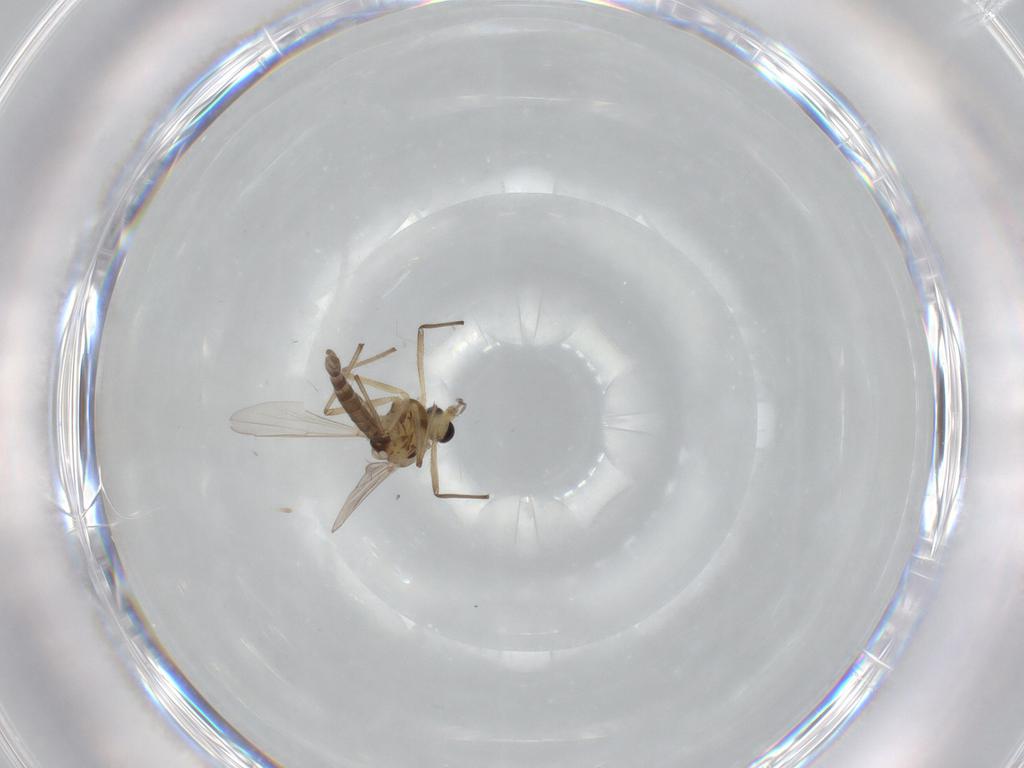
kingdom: Animalia
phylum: Arthropoda
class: Insecta
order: Diptera
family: Chironomidae
